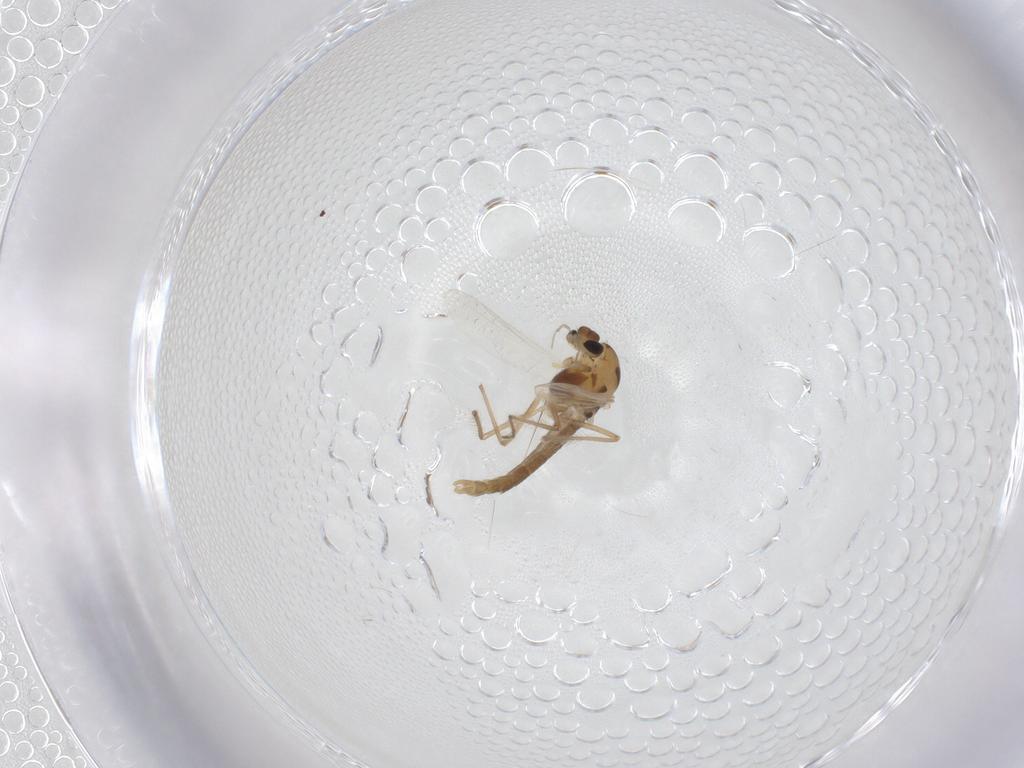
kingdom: Animalia
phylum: Arthropoda
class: Insecta
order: Diptera
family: Chironomidae
